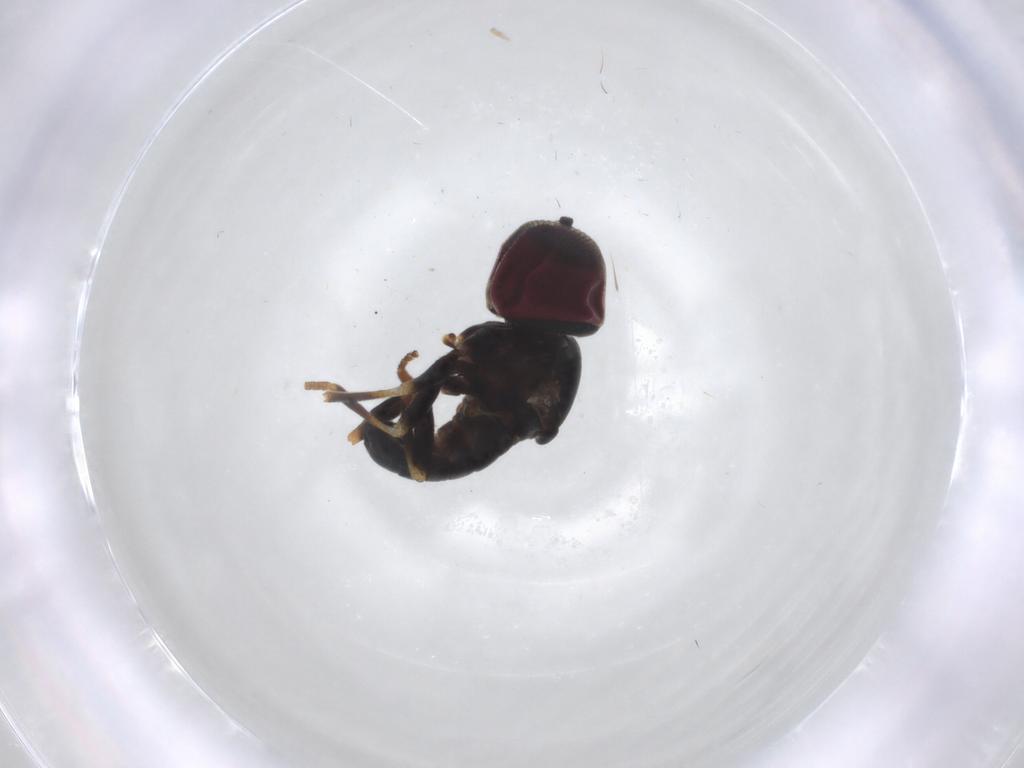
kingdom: Animalia
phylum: Arthropoda
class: Insecta
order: Diptera
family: Pipunculidae
